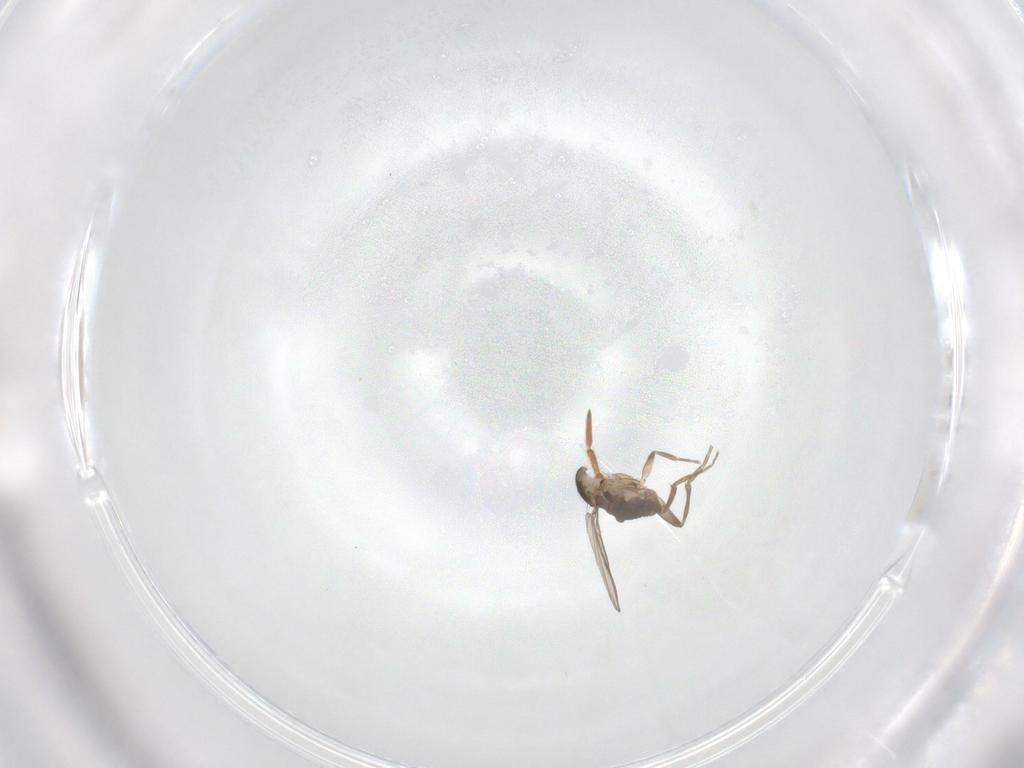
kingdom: Animalia
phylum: Arthropoda
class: Insecta
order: Diptera
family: Phoridae
